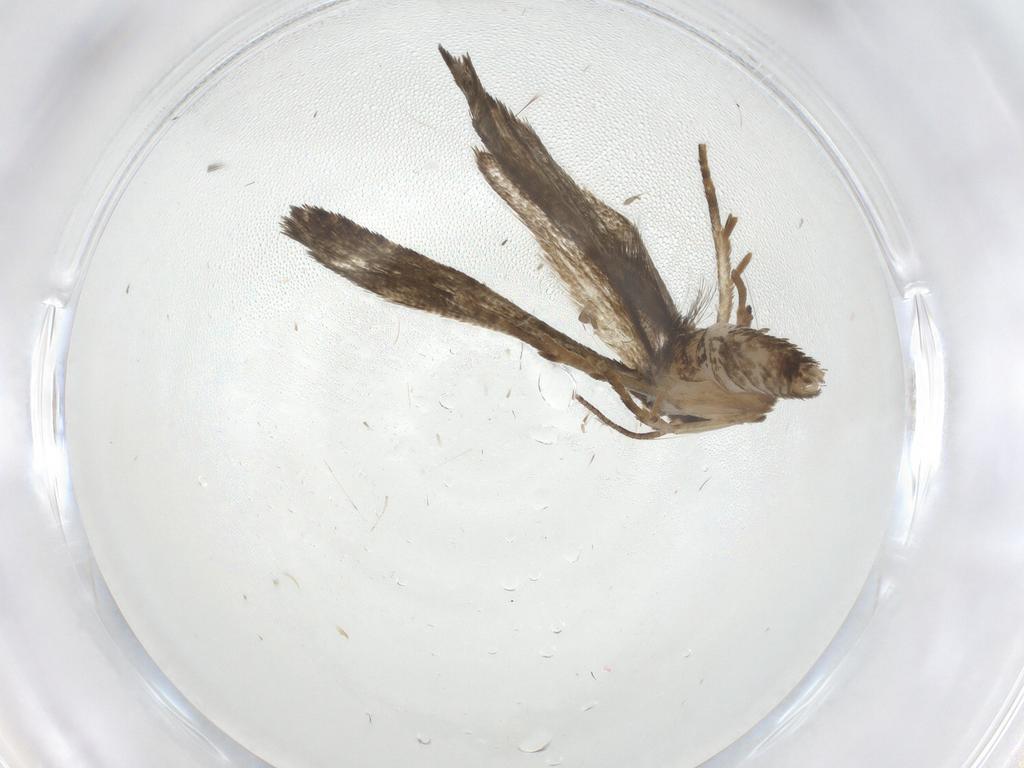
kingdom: Animalia
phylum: Arthropoda
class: Insecta
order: Lepidoptera
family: Tortricidae
